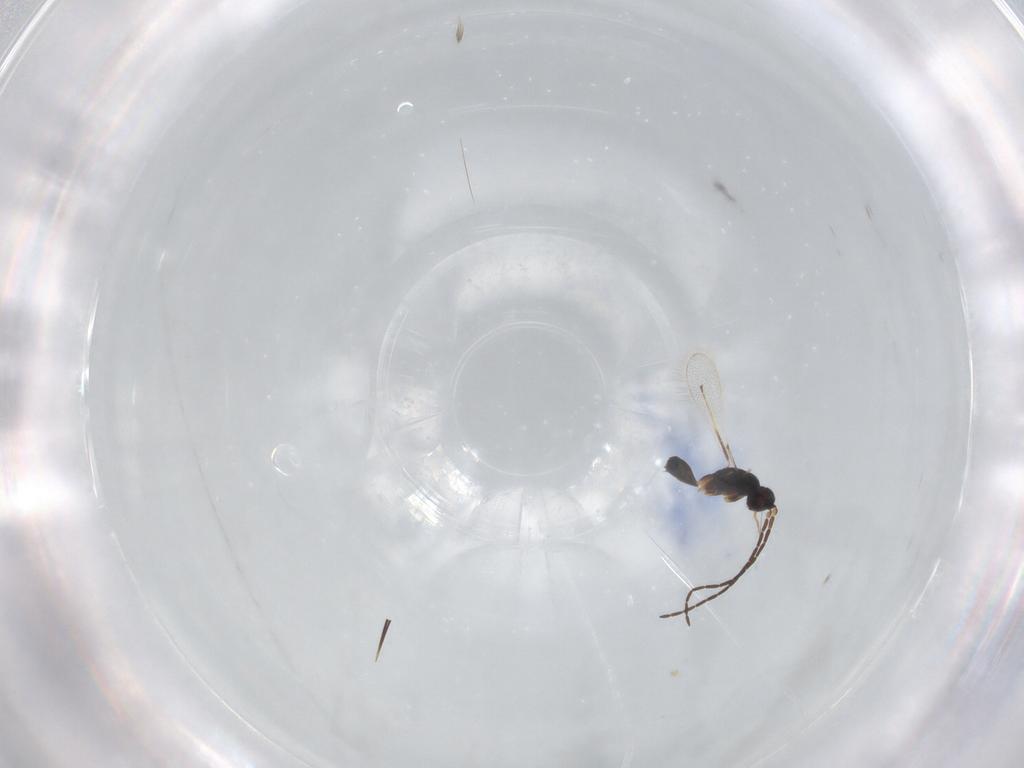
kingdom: Animalia
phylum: Arthropoda
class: Insecta
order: Hymenoptera
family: Mymaridae
